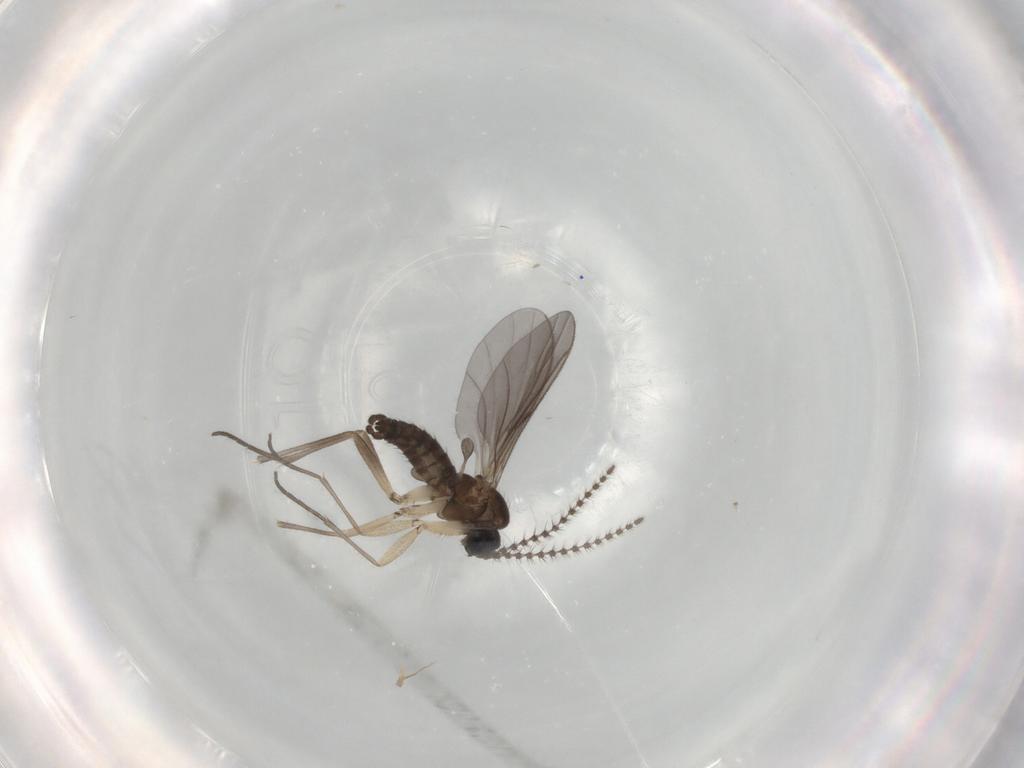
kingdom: Animalia
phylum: Arthropoda
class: Insecta
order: Diptera
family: Sciaridae
